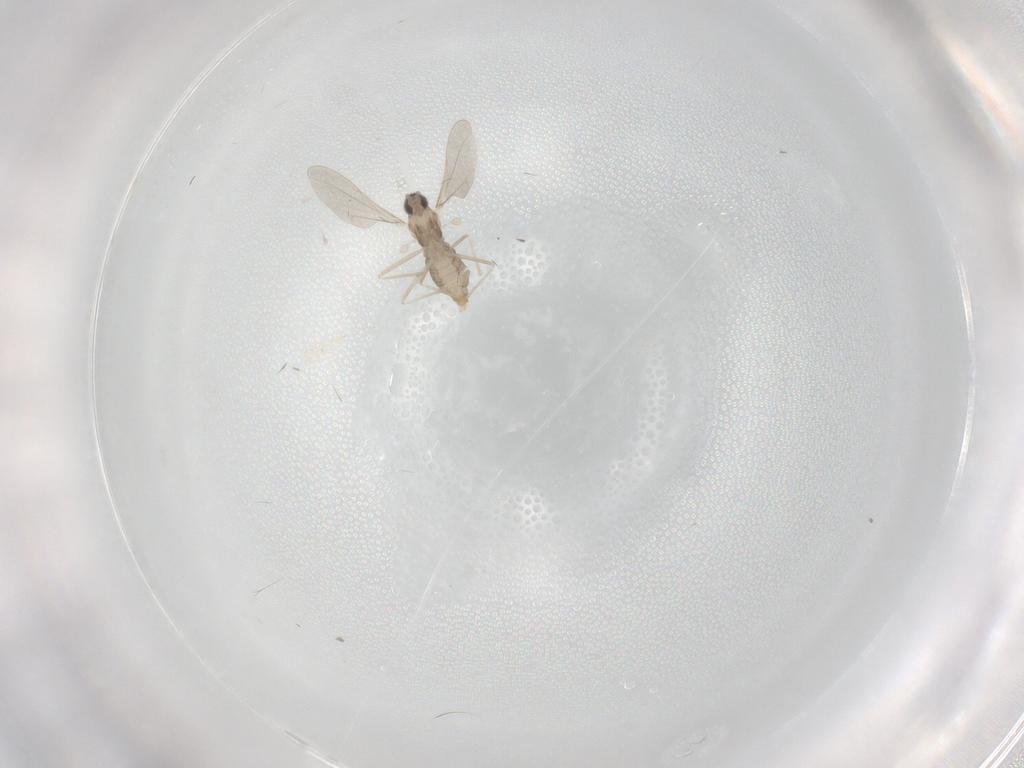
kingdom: Animalia
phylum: Arthropoda
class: Insecta
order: Diptera
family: Cecidomyiidae
